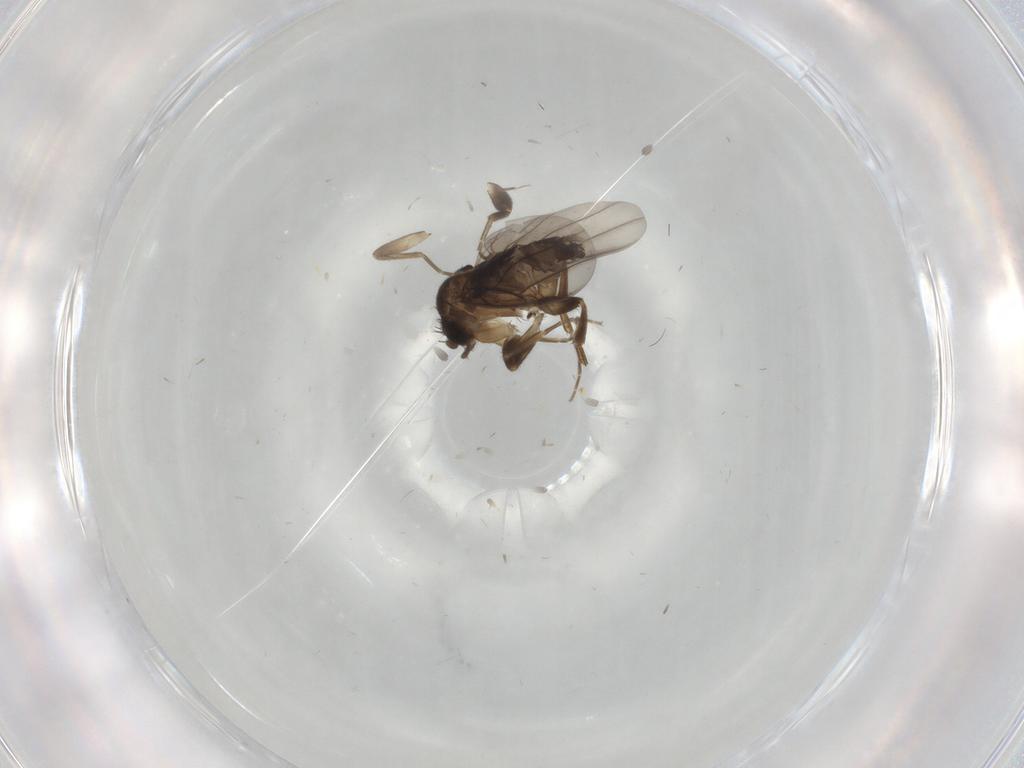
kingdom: Animalia
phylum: Arthropoda
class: Insecta
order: Diptera
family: Chironomidae
